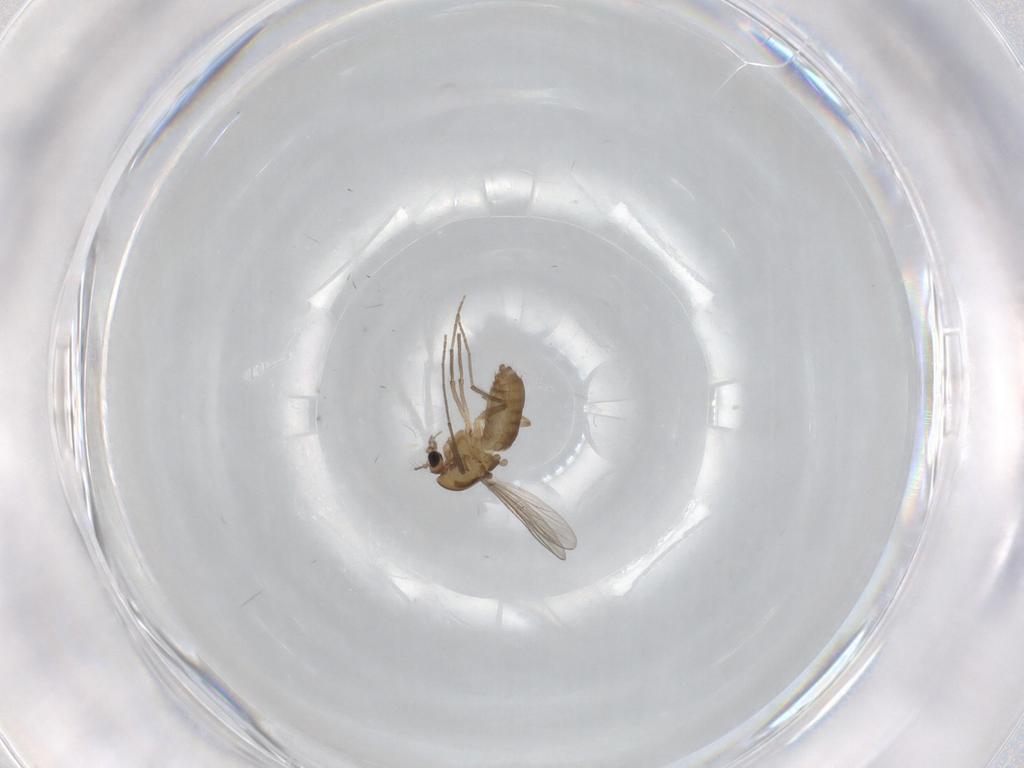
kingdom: Animalia
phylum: Arthropoda
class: Insecta
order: Diptera
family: Chironomidae
